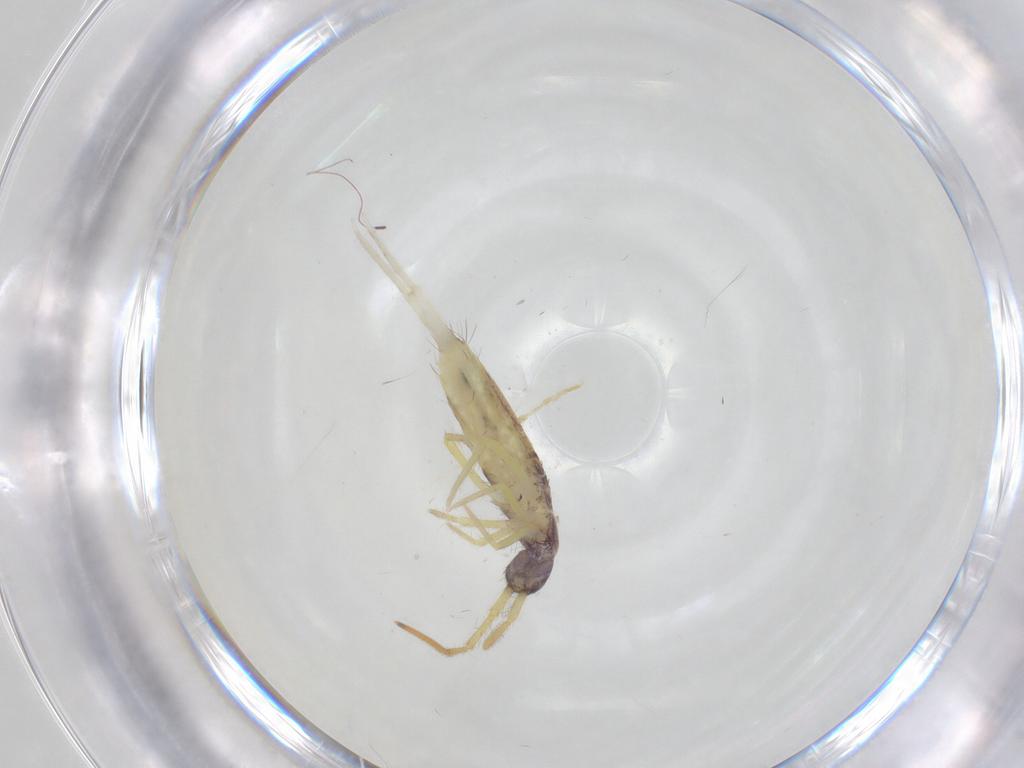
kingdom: Animalia
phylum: Arthropoda
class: Collembola
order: Entomobryomorpha
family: Entomobryidae
